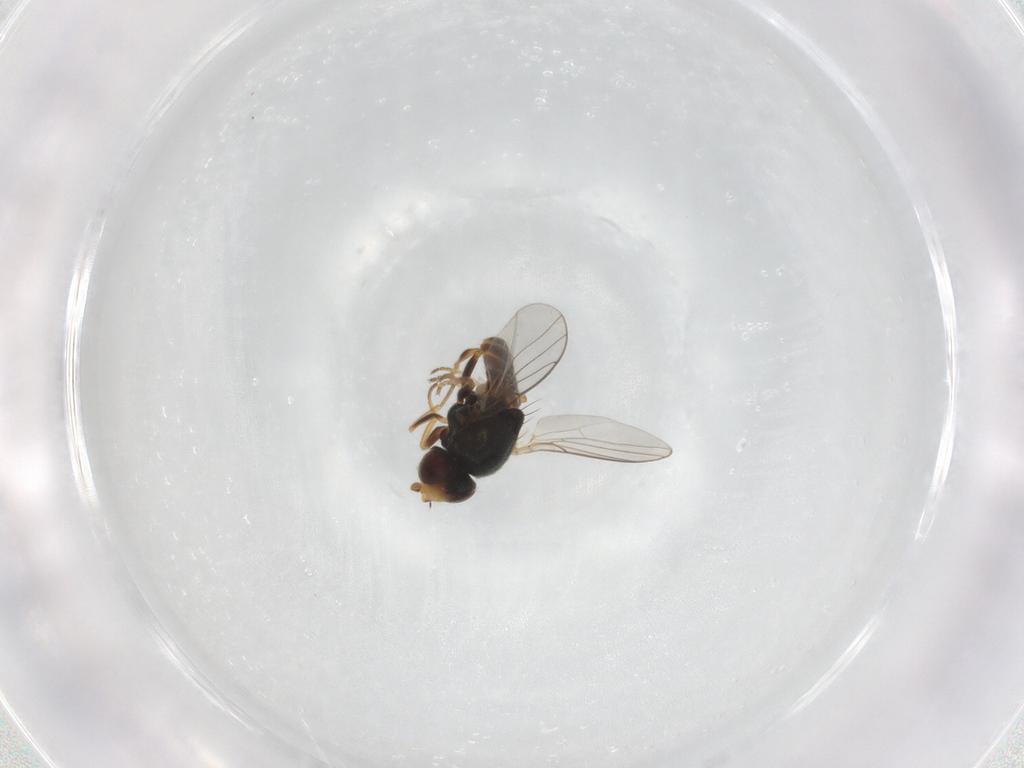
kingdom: Animalia
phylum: Arthropoda
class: Insecta
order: Diptera
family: Chloropidae
